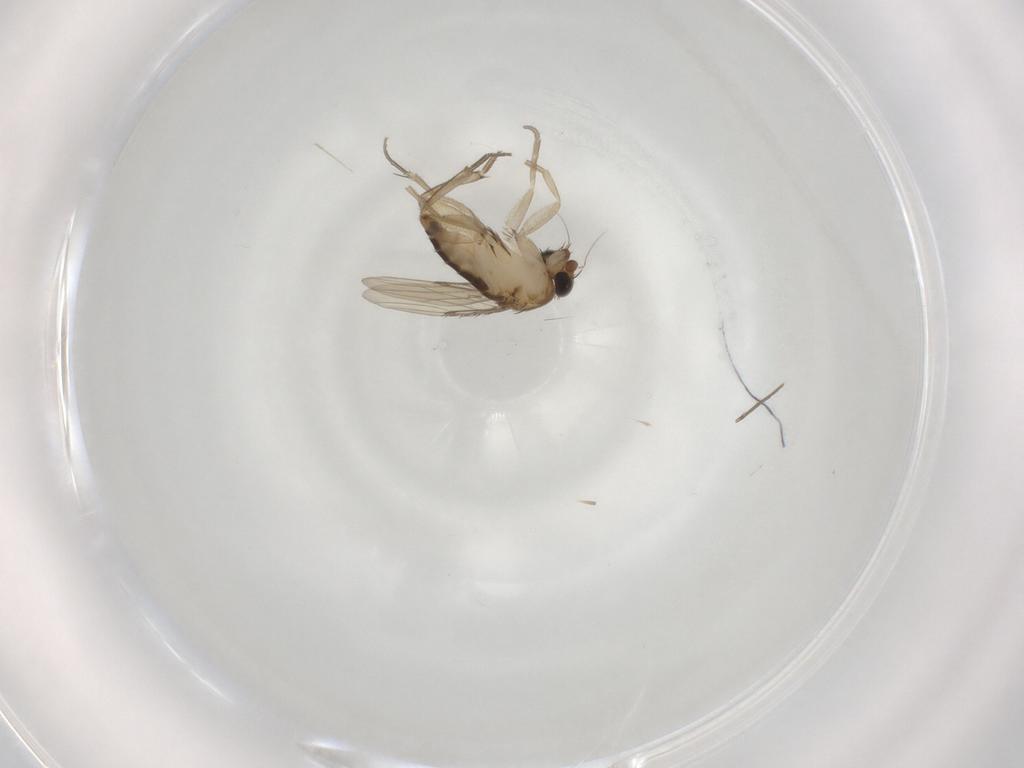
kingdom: Animalia
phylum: Arthropoda
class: Insecta
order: Diptera
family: Phoridae
